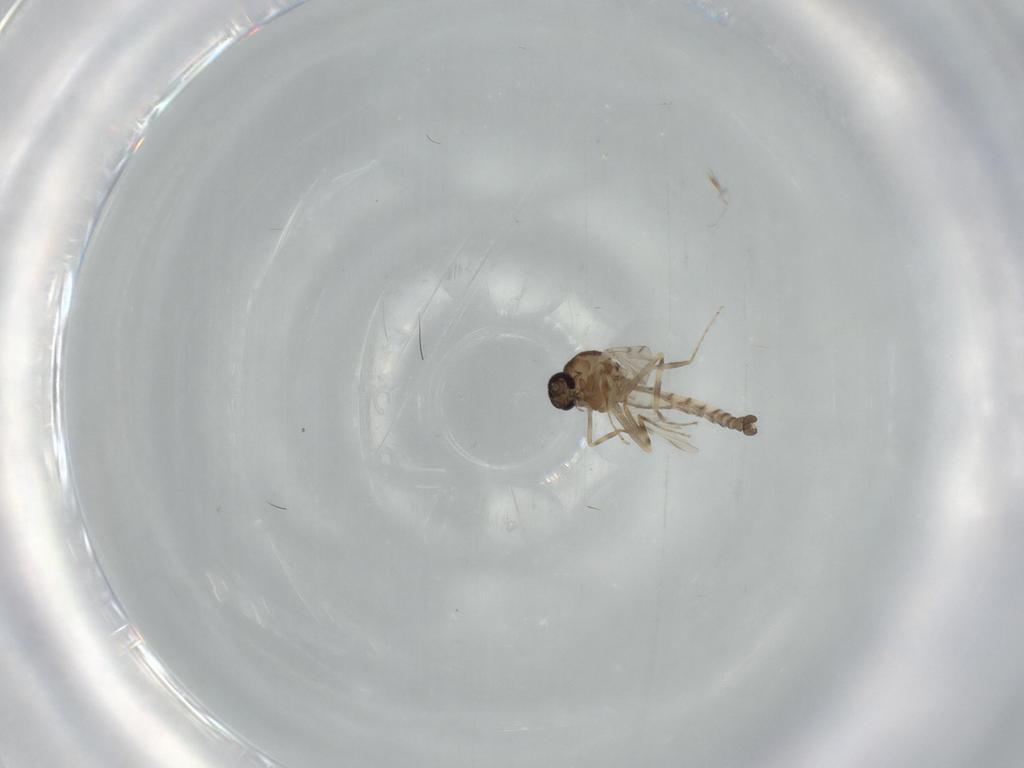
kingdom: Animalia
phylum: Arthropoda
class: Insecta
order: Diptera
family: Ceratopogonidae
